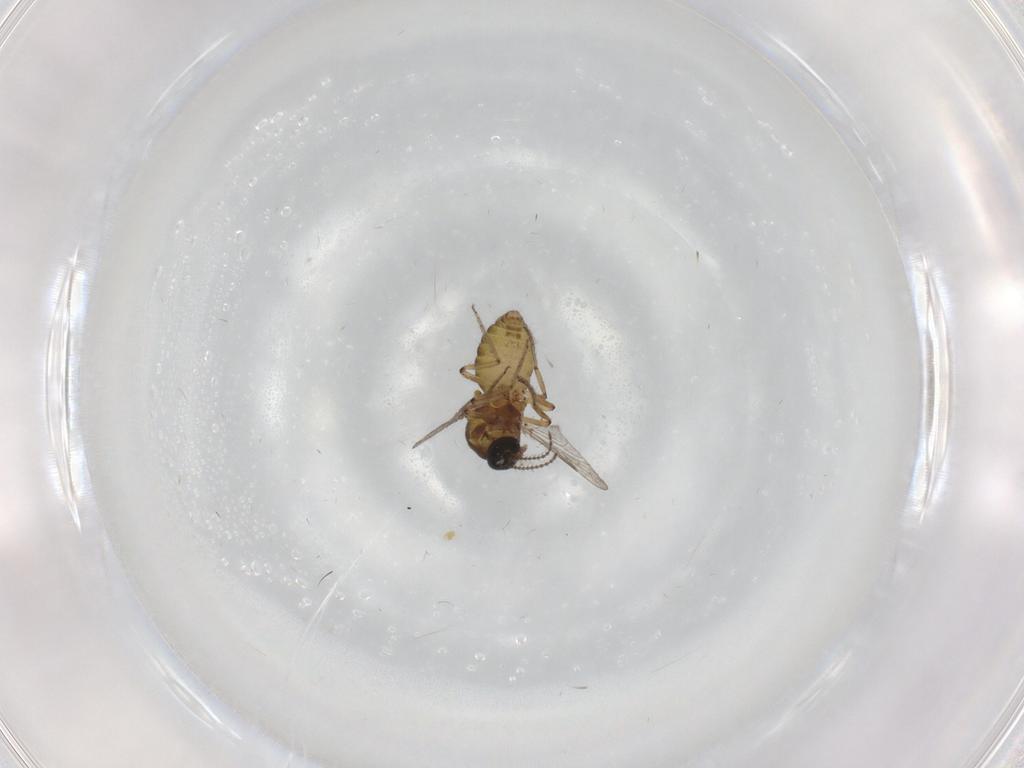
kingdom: Animalia
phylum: Arthropoda
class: Insecta
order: Diptera
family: Ceratopogonidae
